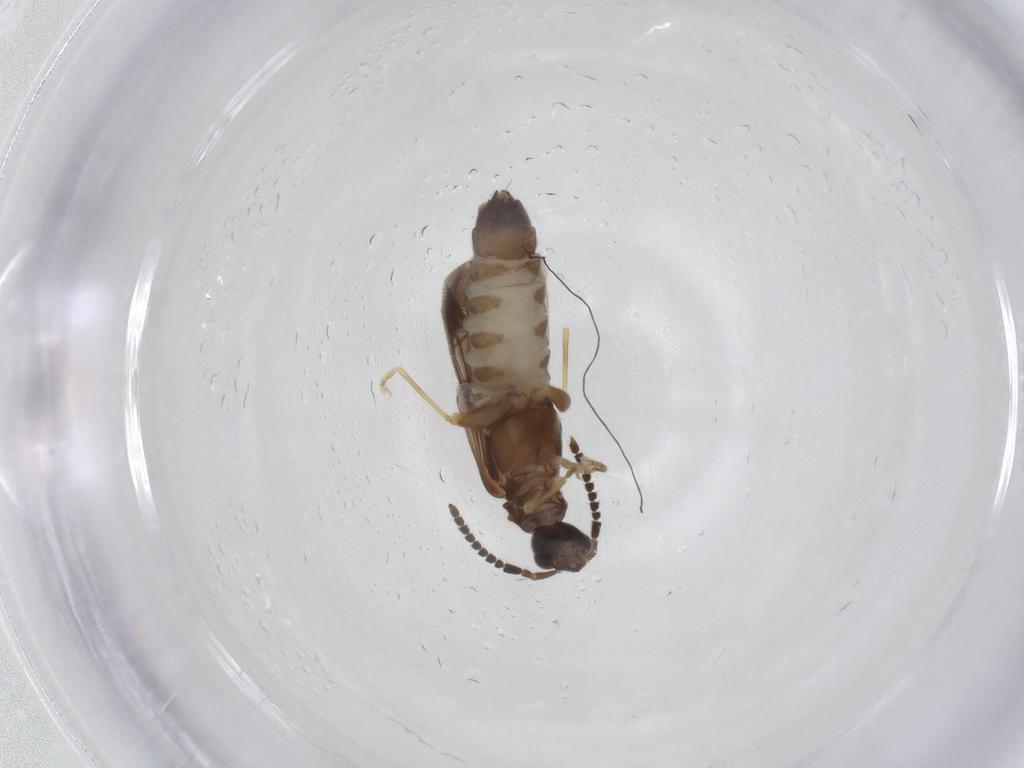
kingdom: Animalia
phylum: Arthropoda
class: Insecta
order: Coleoptera
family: Cantharidae
